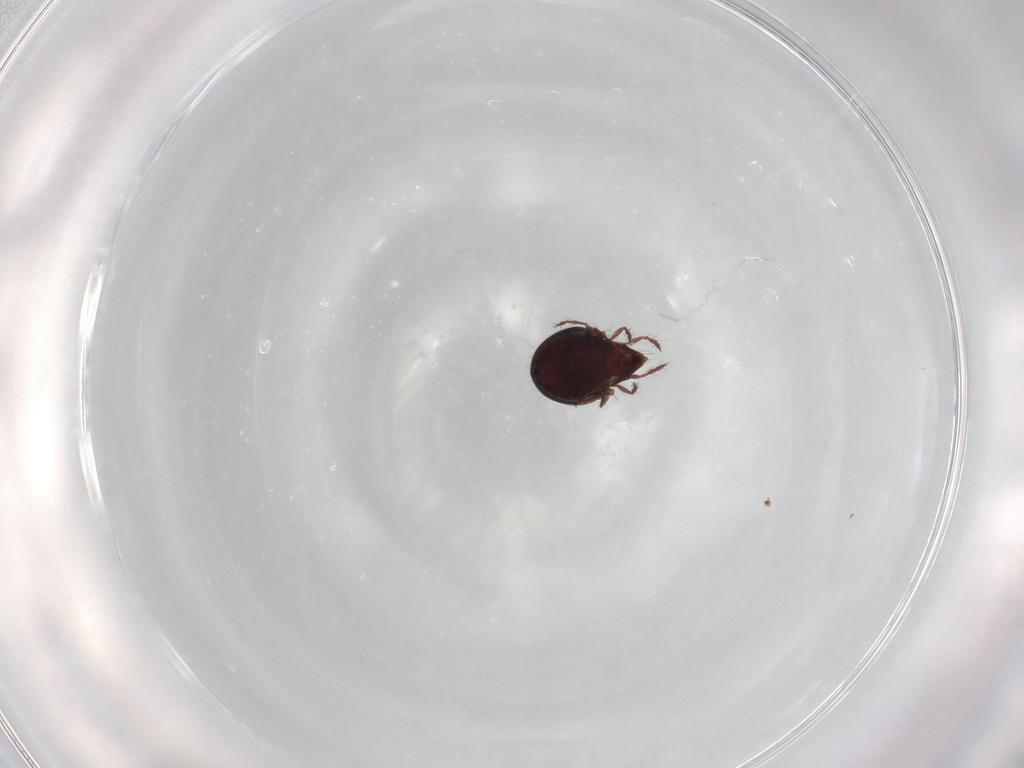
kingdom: Animalia
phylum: Arthropoda
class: Arachnida
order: Sarcoptiformes
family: Ceratoppiidae
